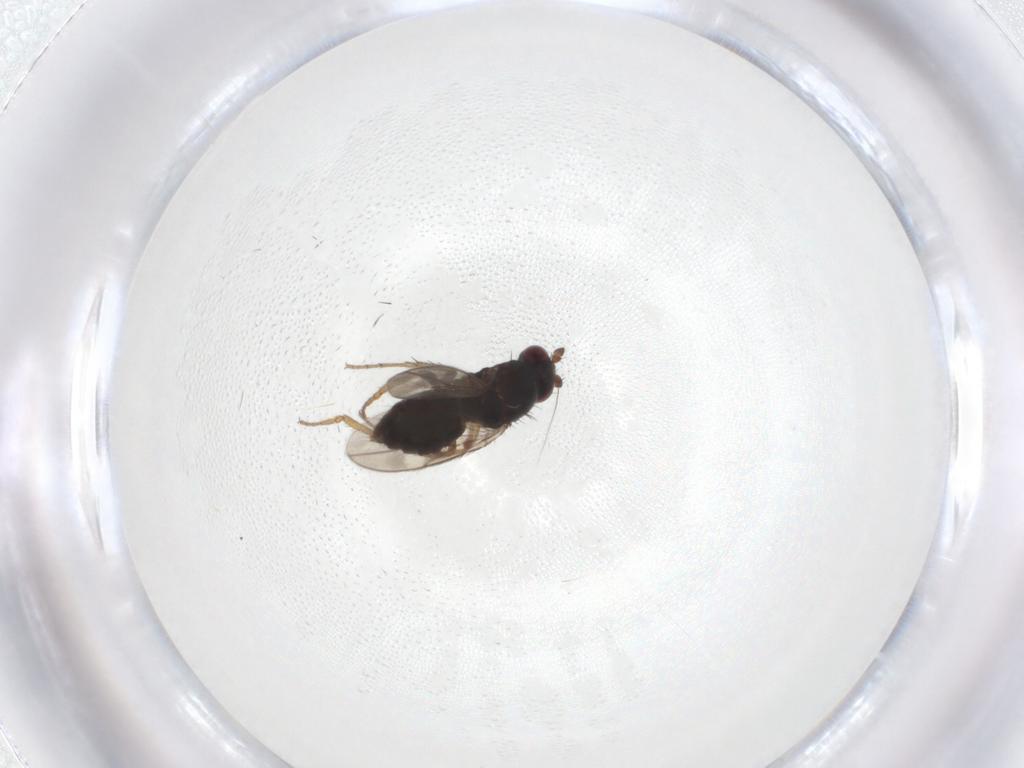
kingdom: Animalia
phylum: Arthropoda
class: Insecta
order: Diptera
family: Sphaeroceridae
